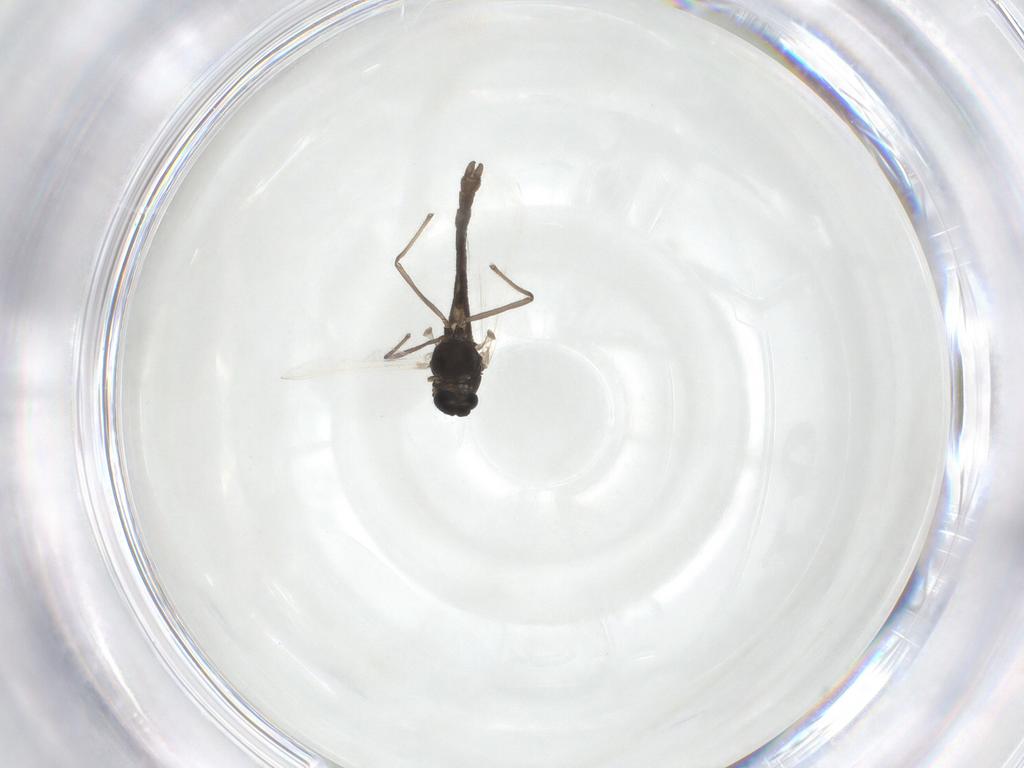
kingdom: Animalia
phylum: Arthropoda
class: Insecta
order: Diptera
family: Chironomidae
